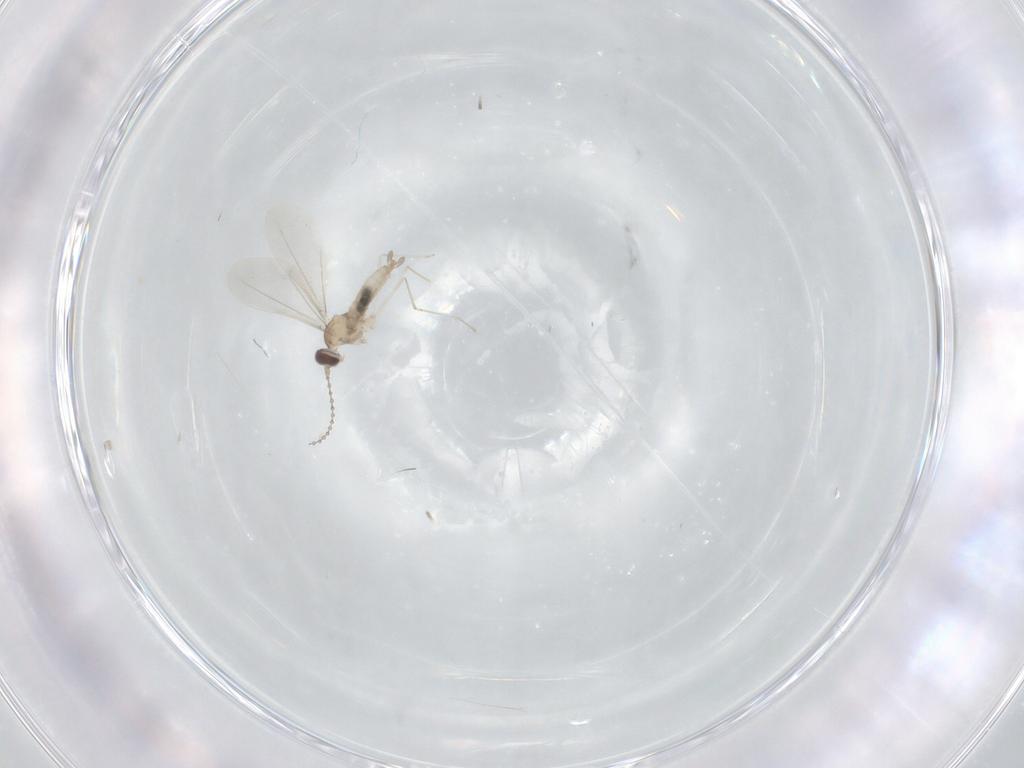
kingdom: Animalia
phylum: Arthropoda
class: Insecta
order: Diptera
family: Cecidomyiidae
